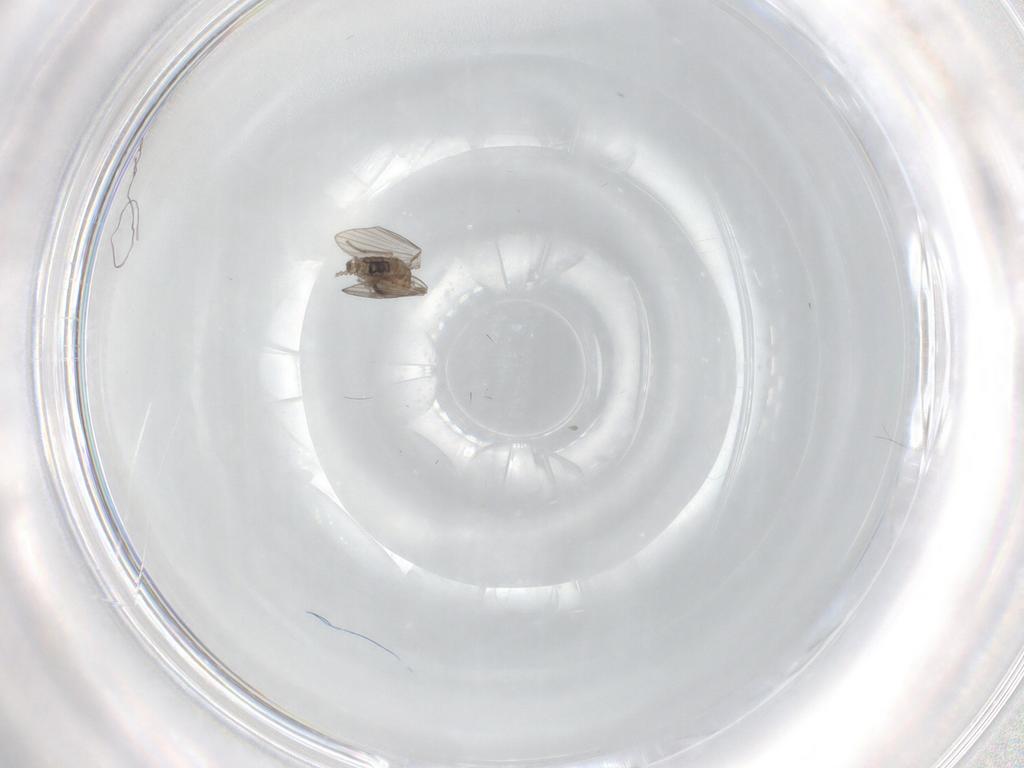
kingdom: Animalia
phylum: Arthropoda
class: Insecta
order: Diptera
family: Psychodidae
